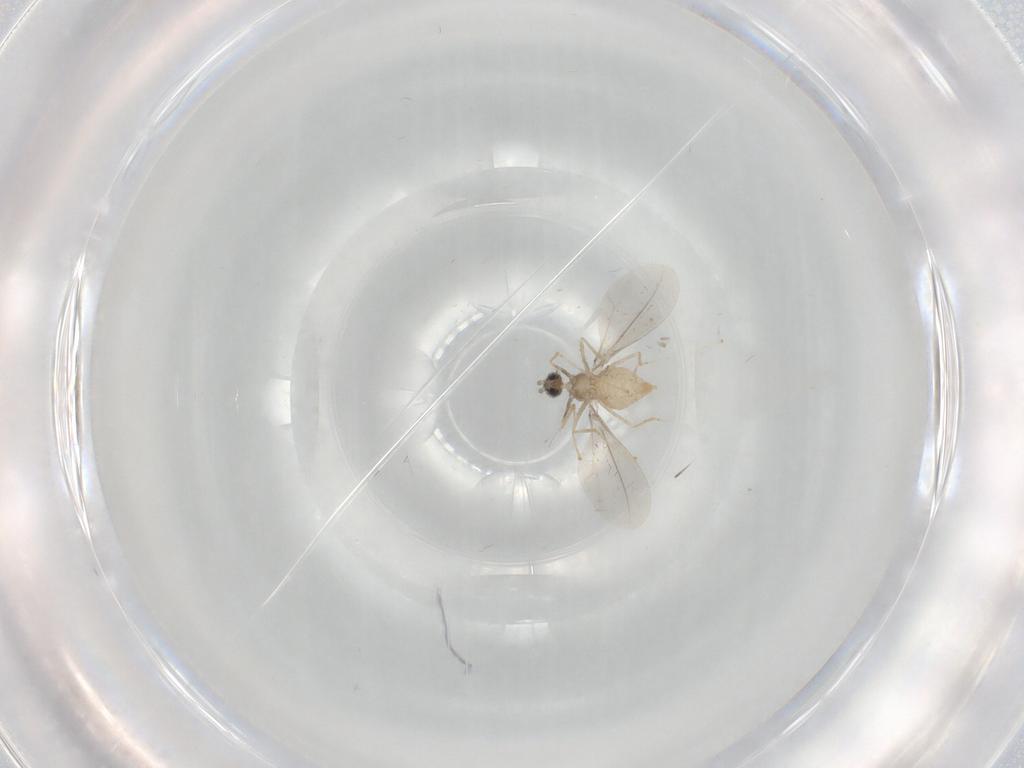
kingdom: Animalia
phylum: Arthropoda
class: Insecta
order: Diptera
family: Cecidomyiidae
